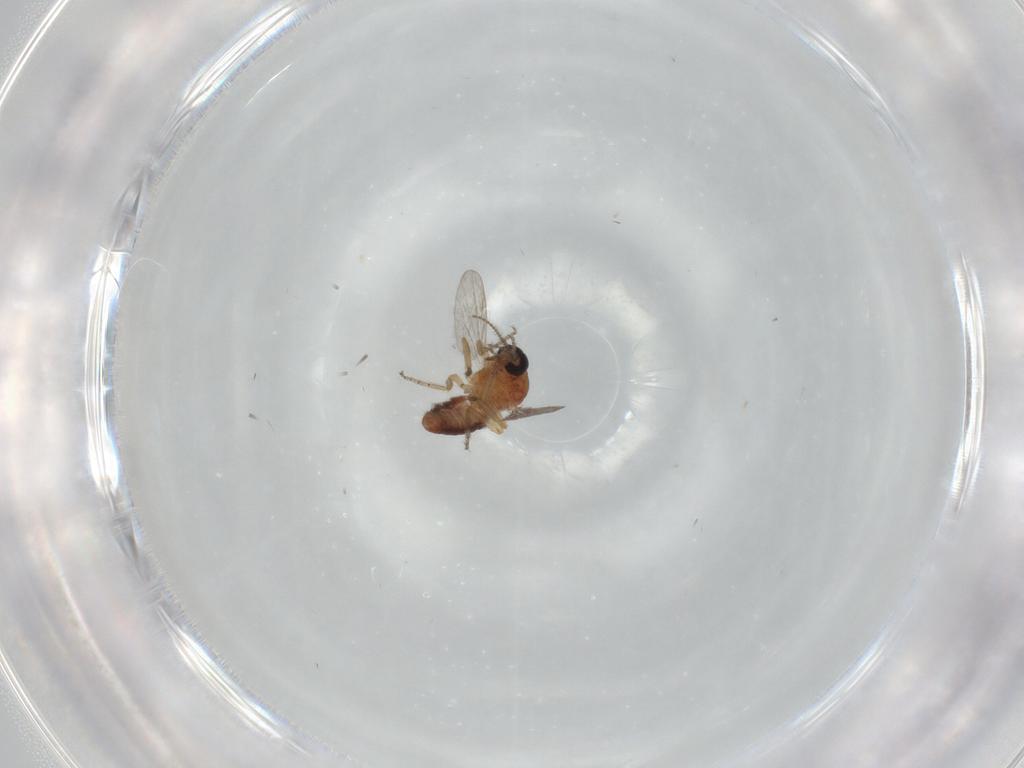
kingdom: Animalia
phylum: Arthropoda
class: Insecta
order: Diptera
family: Ceratopogonidae
